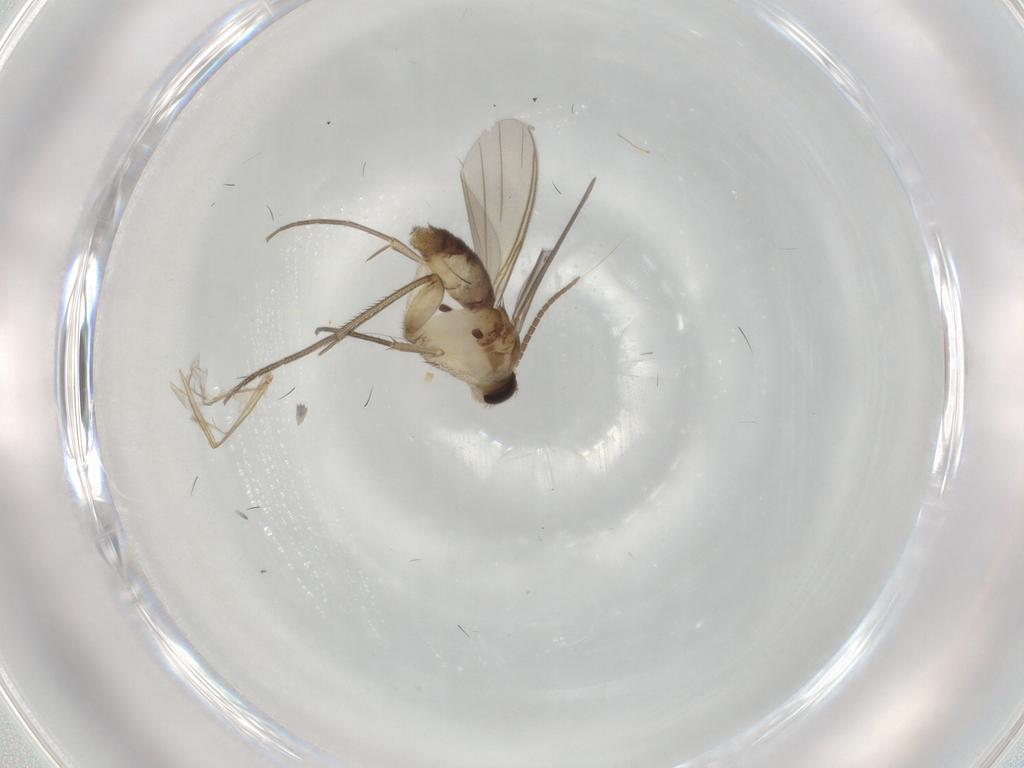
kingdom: Animalia
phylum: Arthropoda
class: Insecta
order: Diptera
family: Dolichopodidae
